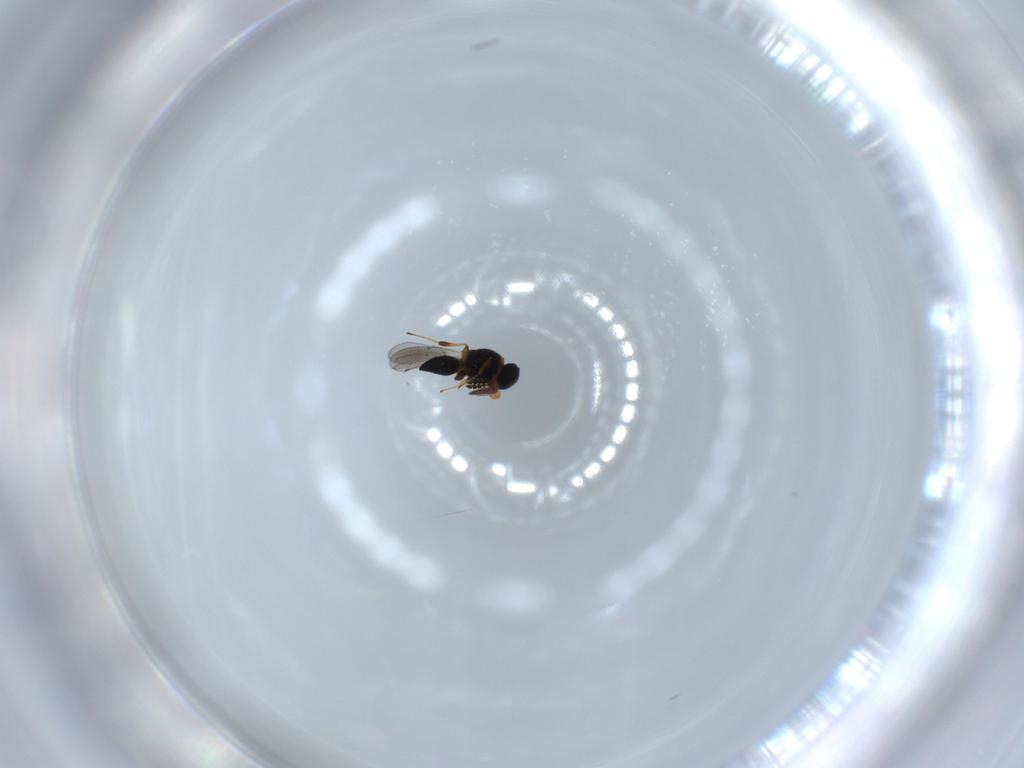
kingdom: Animalia
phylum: Arthropoda
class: Insecta
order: Hymenoptera
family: Platygastridae
